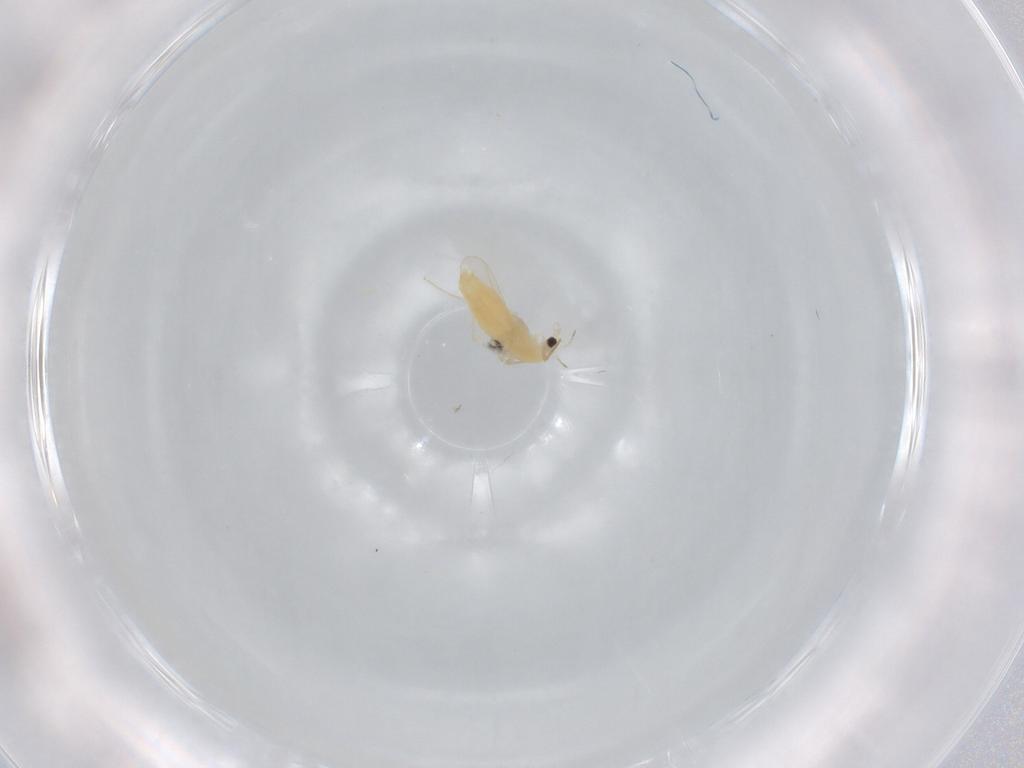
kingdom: Animalia
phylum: Arthropoda
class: Insecta
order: Diptera
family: Chironomidae
